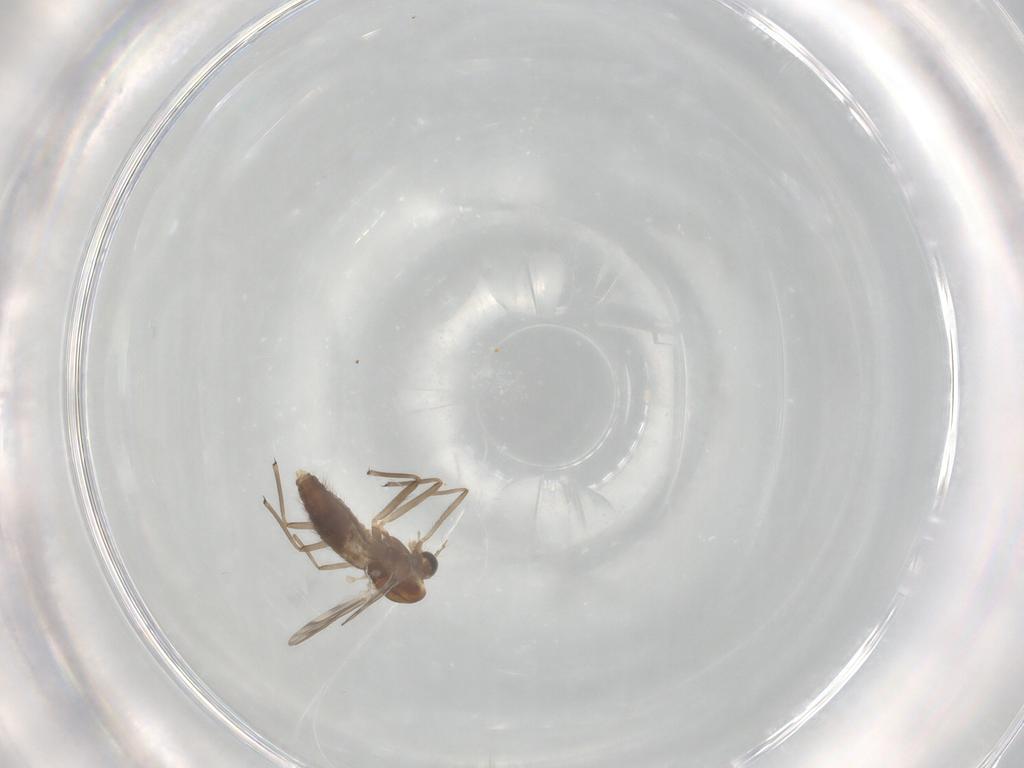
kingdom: Animalia
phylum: Arthropoda
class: Insecta
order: Diptera
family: Chironomidae
